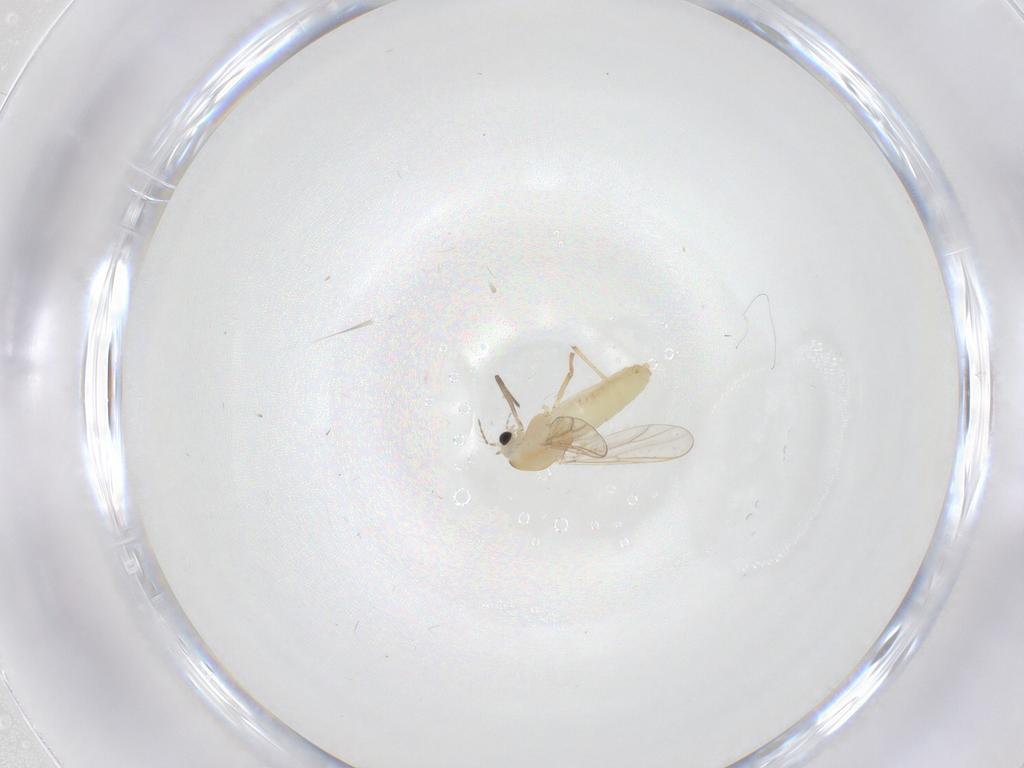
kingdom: Animalia
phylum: Arthropoda
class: Insecta
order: Diptera
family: Chironomidae
